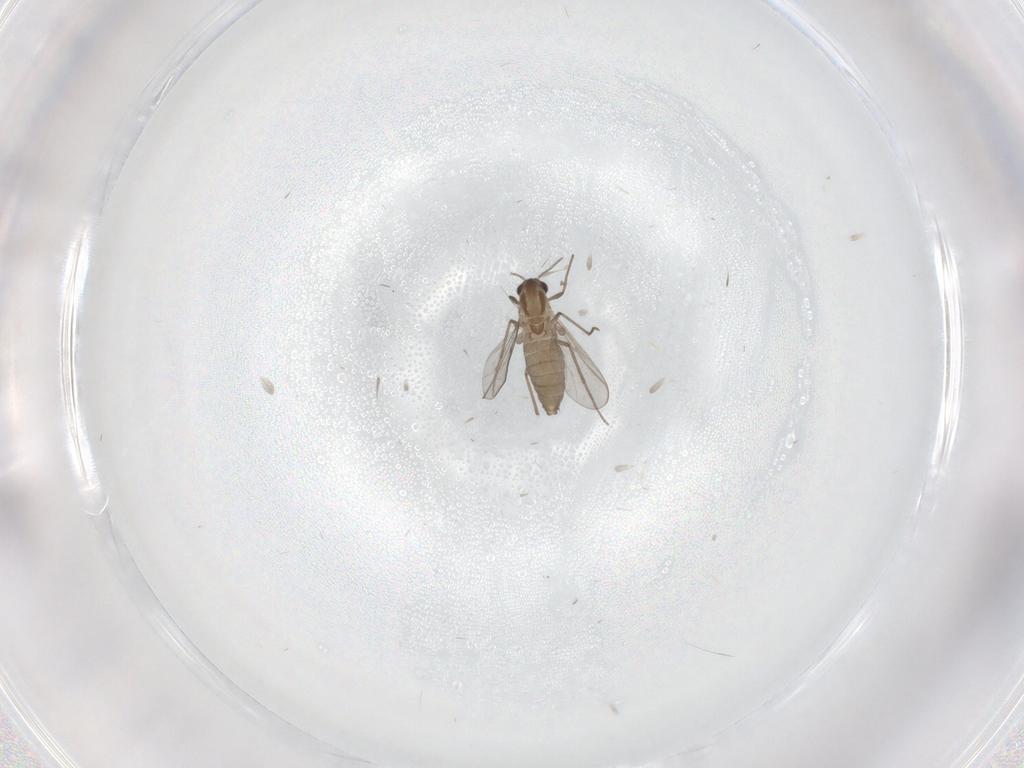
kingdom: Animalia
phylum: Arthropoda
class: Insecta
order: Diptera
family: Chironomidae
